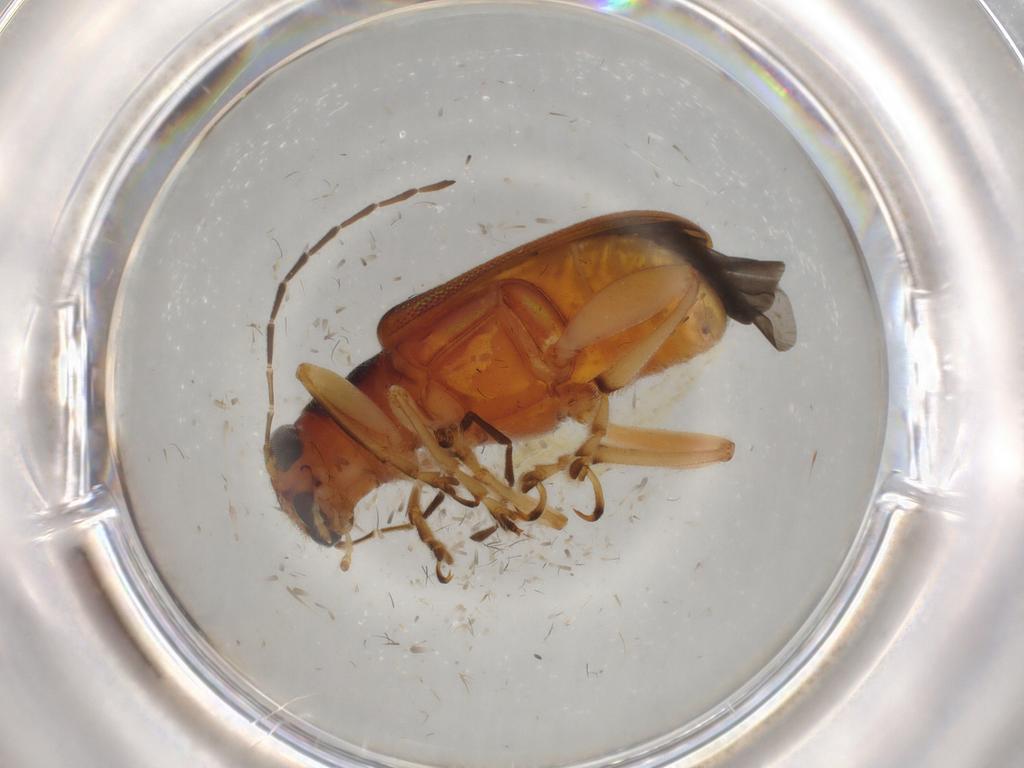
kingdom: Animalia
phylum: Arthropoda
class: Insecta
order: Coleoptera
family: Chrysomelidae
